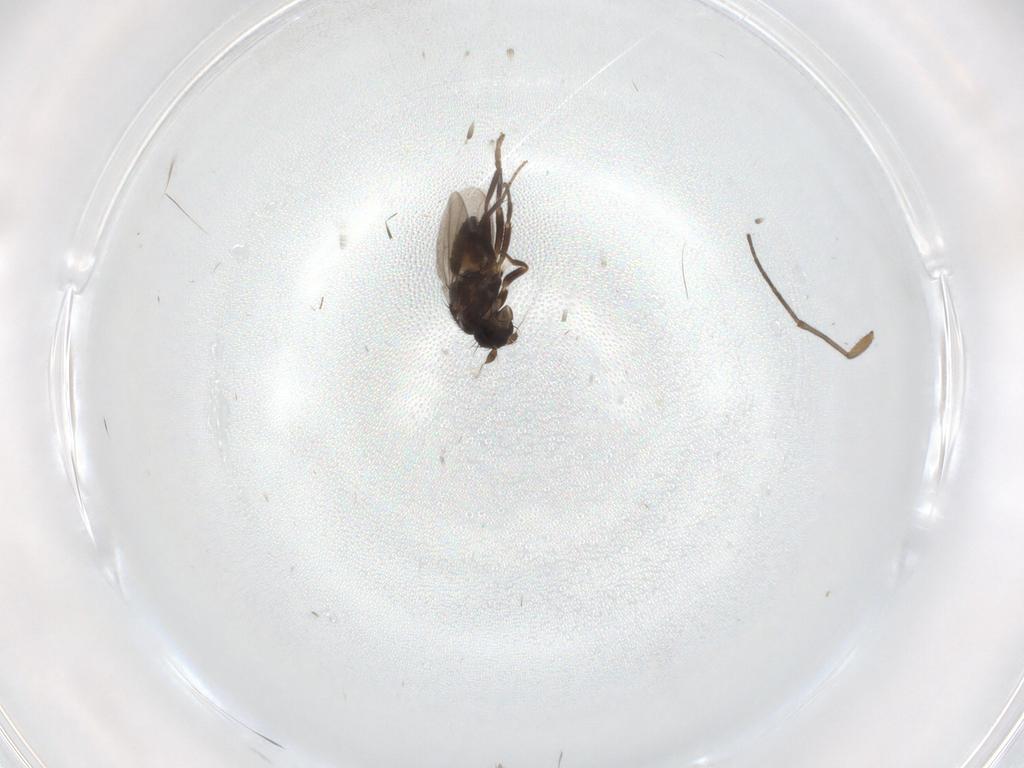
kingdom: Animalia
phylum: Arthropoda
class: Insecta
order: Diptera
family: Sphaeroceridae
